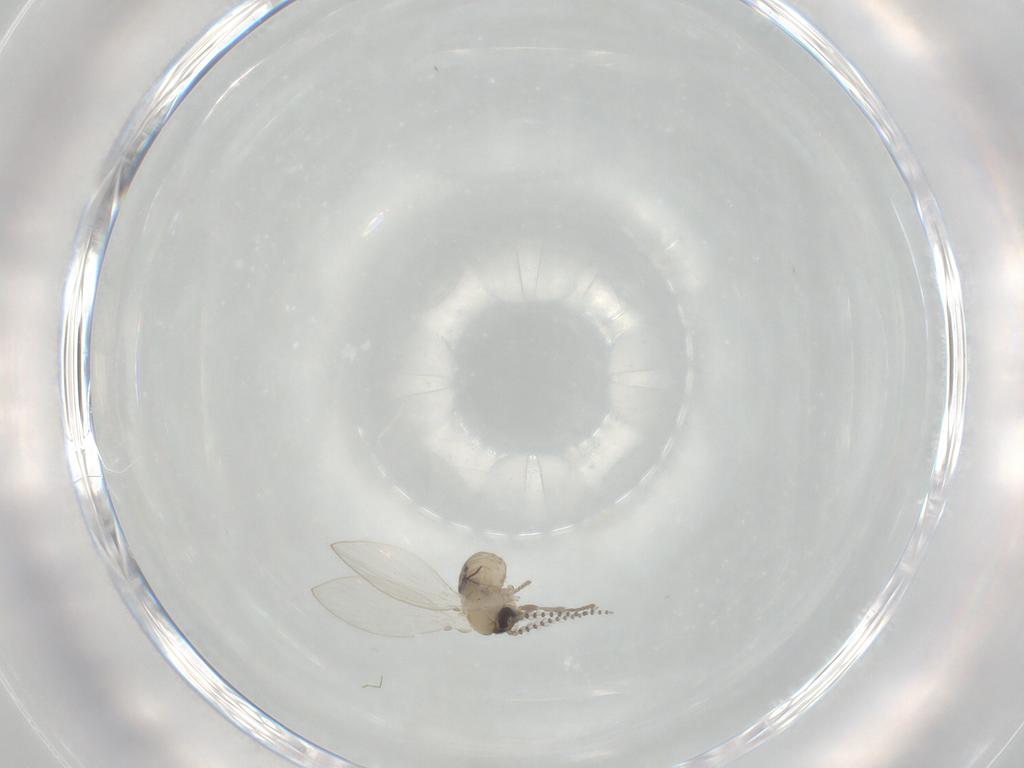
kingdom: Animalia
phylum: Arthropoda
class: Insecta
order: Diptera
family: Psychodidae
